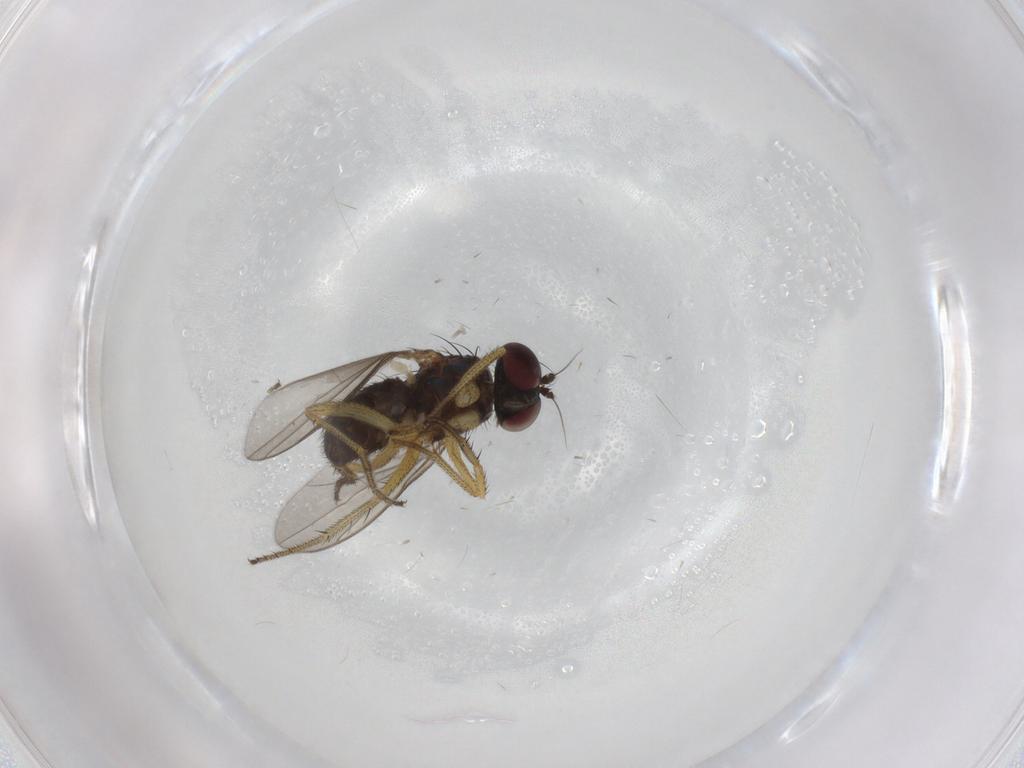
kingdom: Animalia
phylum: Arthropoda
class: Insecta
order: Diptera
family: Dolichopodidae
